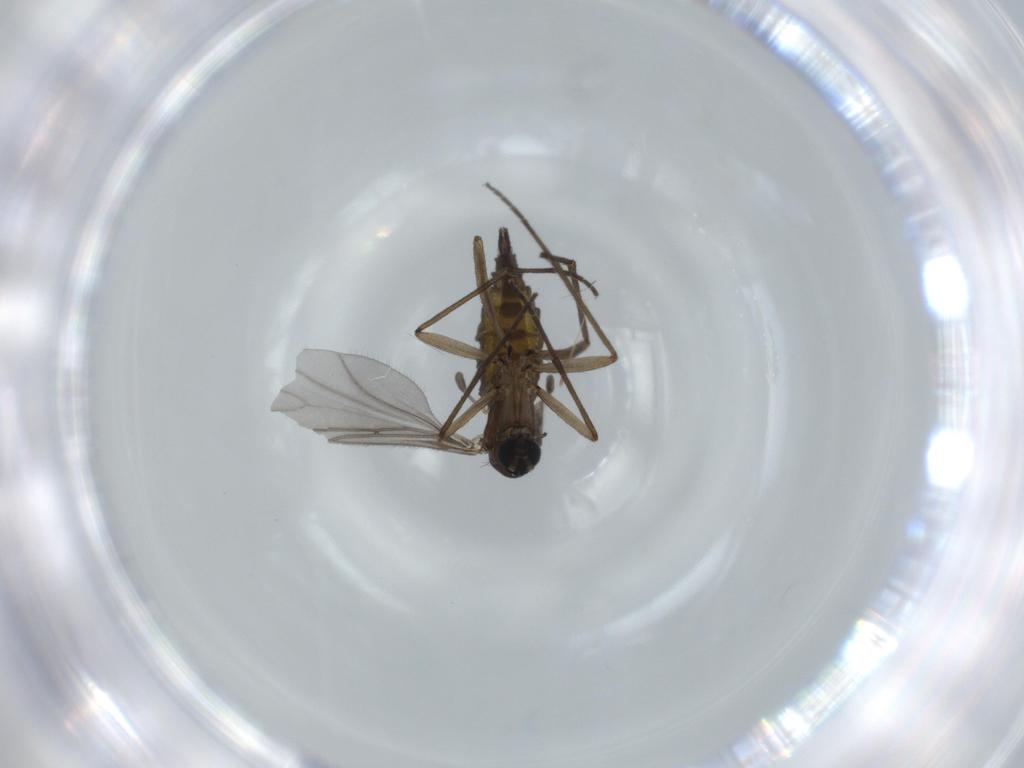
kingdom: Animalia
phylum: Arthropoda
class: Insecta
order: Diptera
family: Sciaridae
